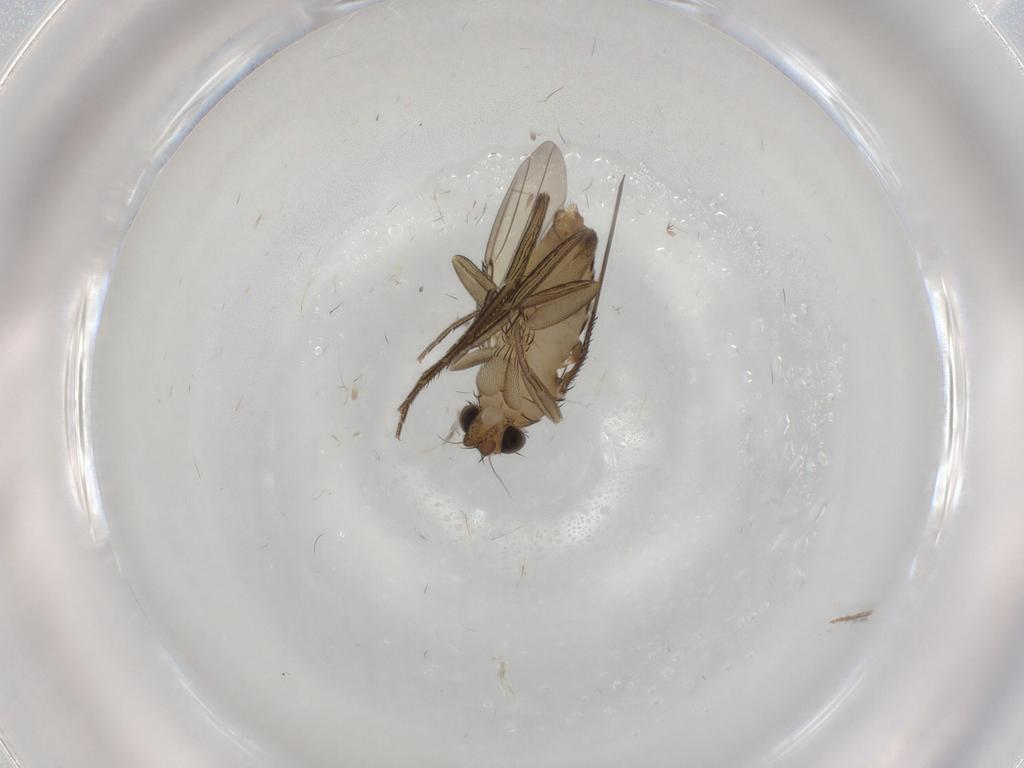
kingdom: Animalia
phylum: Arthropoda
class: Insecta
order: Diptera
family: Phoridae
